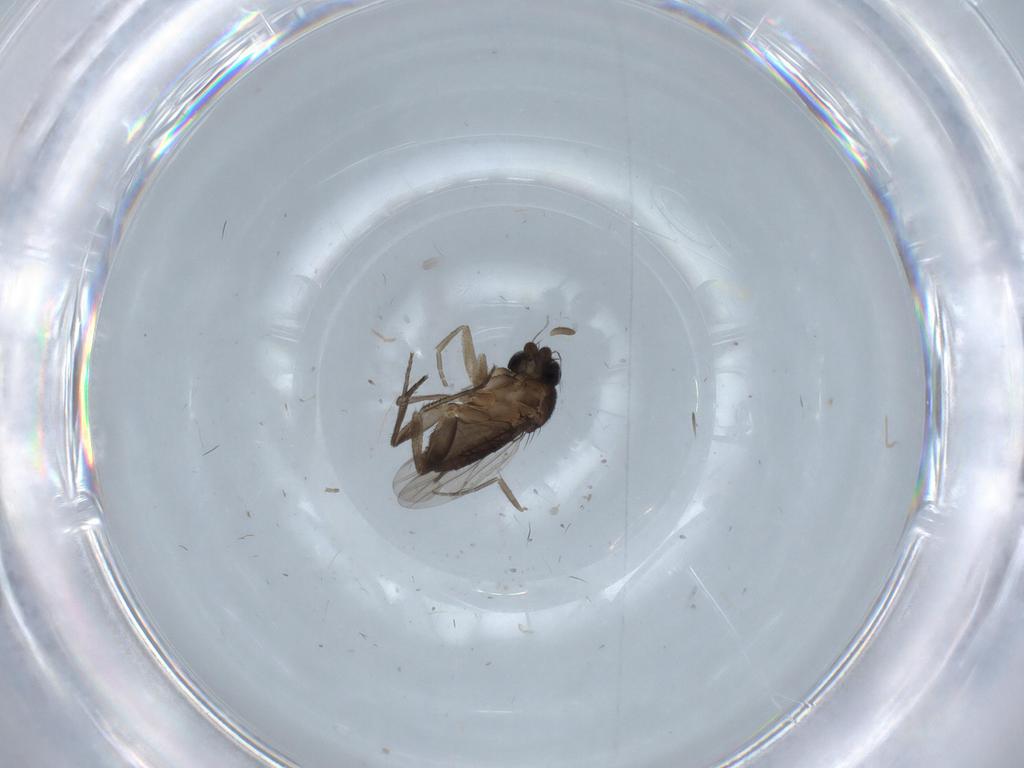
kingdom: Animalia
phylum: Arthropoda
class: Insecta
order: Diptera
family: Phoridae
